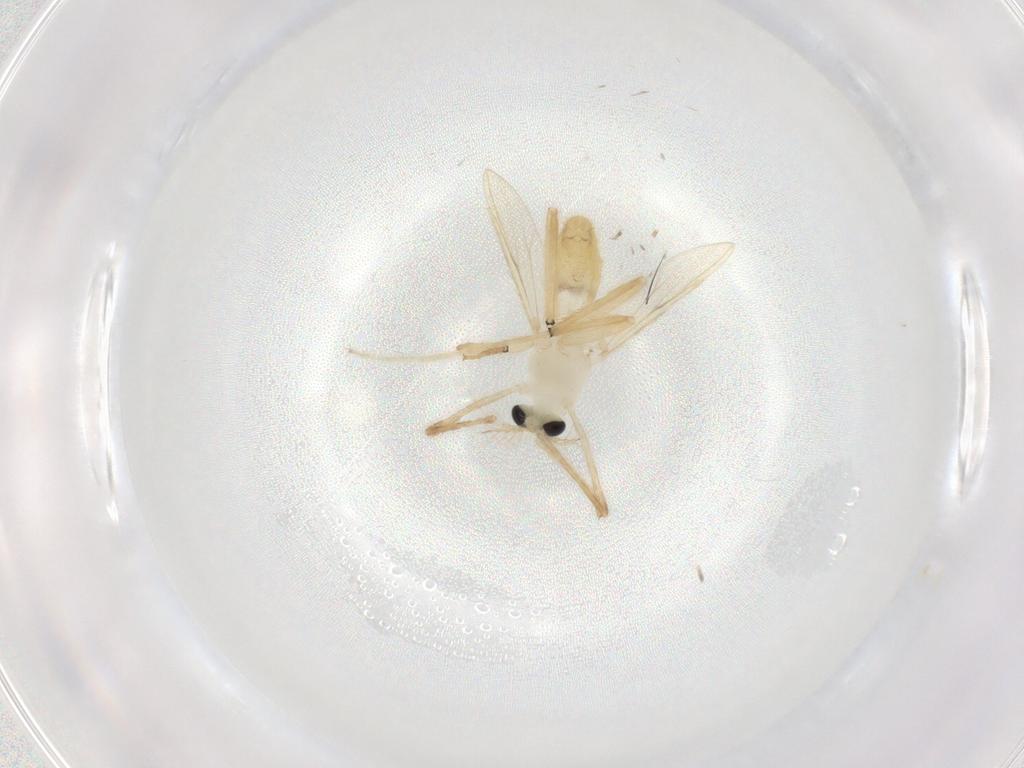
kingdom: Animalia
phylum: Arthropoda
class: Insecta
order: Diptera
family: Chironomidae
